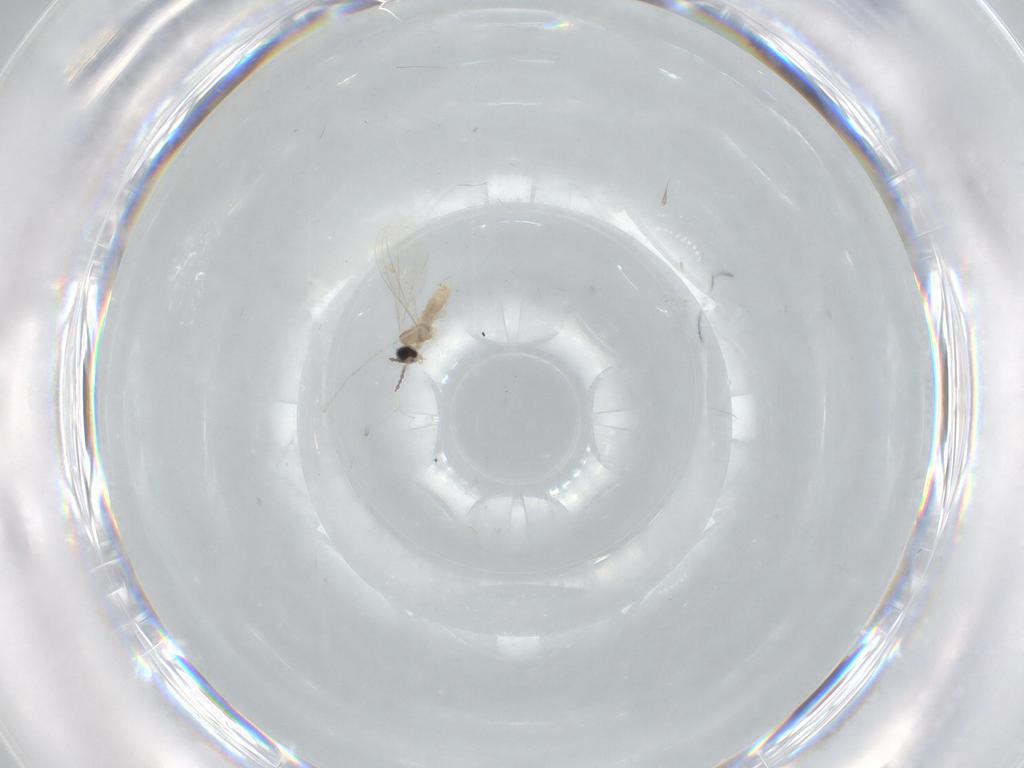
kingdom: Animalia
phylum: Arthropoda
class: Insecta
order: Diptera
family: Cecidomyiidae
